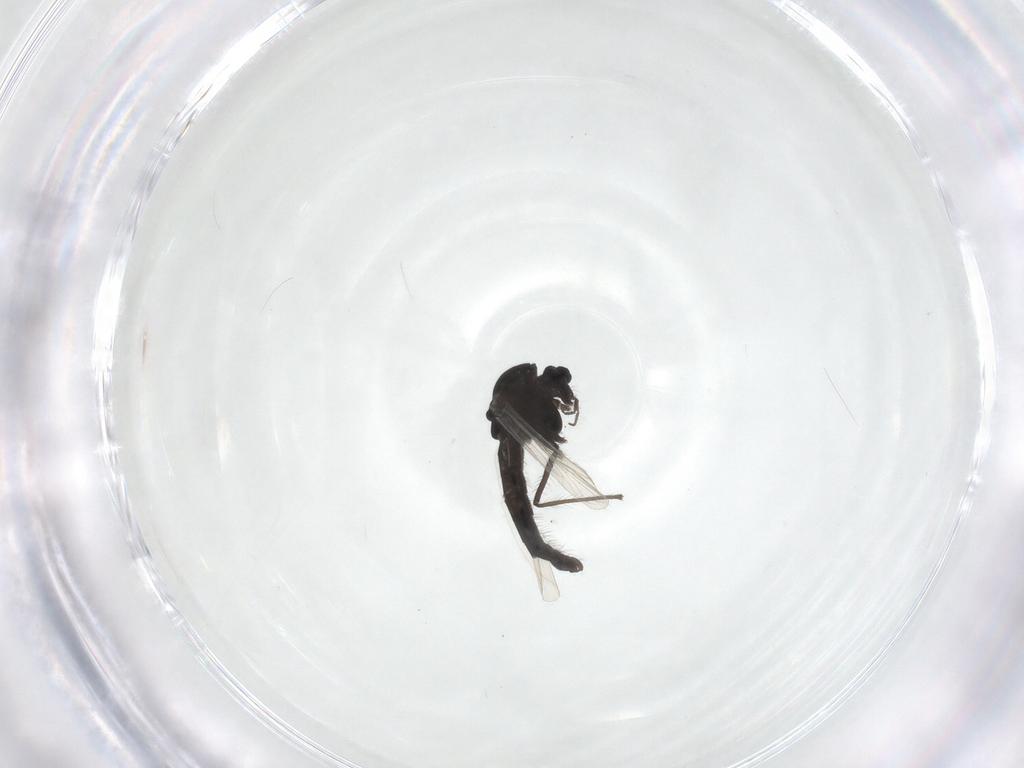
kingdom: Animalia
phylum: Arthropoda
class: Insecta
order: Diptera
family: Chironomidae
